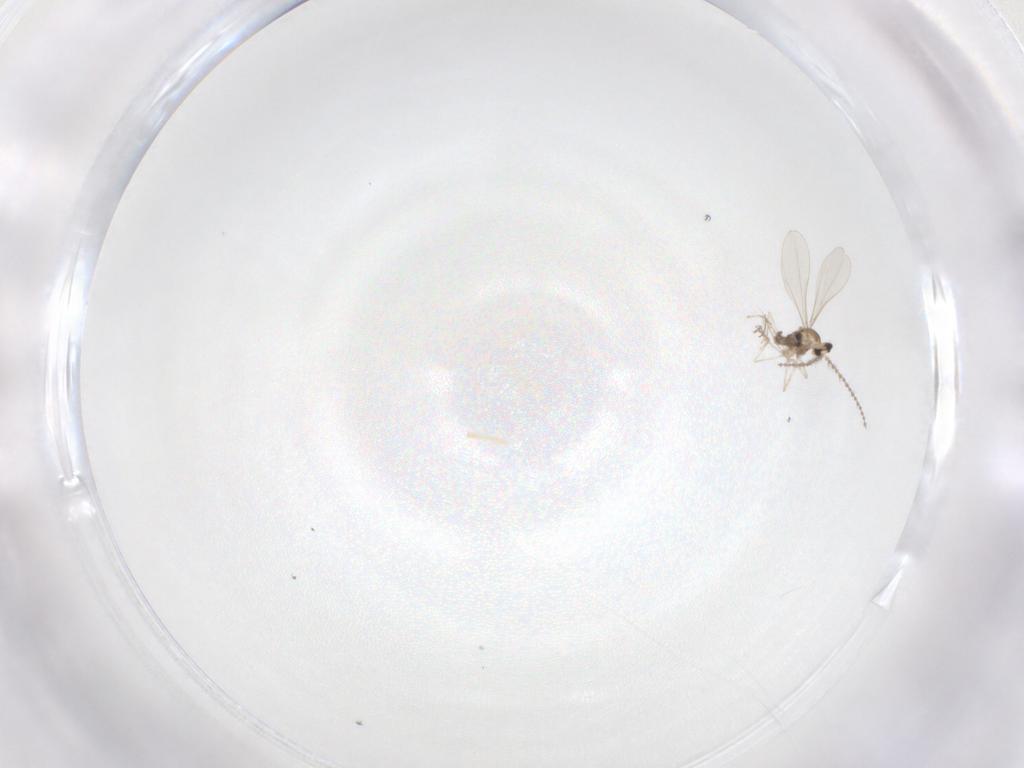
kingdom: Animalia
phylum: Arthropoda
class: Insecta
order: Diptera
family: Cecidomyiidae
